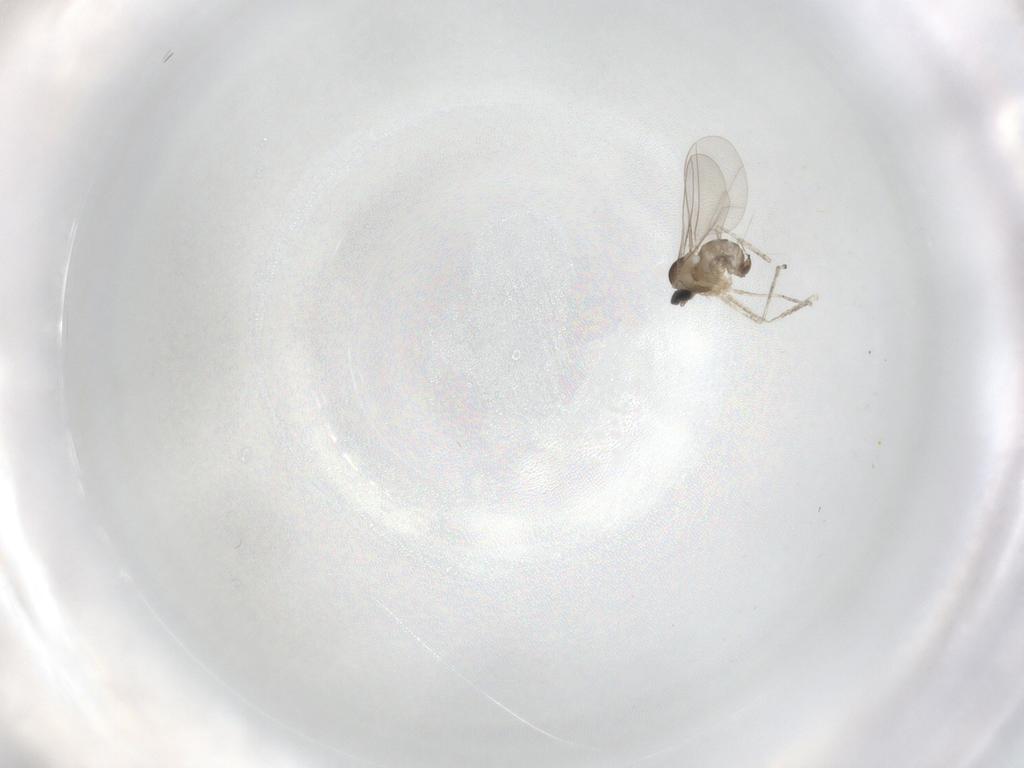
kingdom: Animalia
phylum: Arthropoda
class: Insecta
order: Diptera
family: Cecidomyiidae
